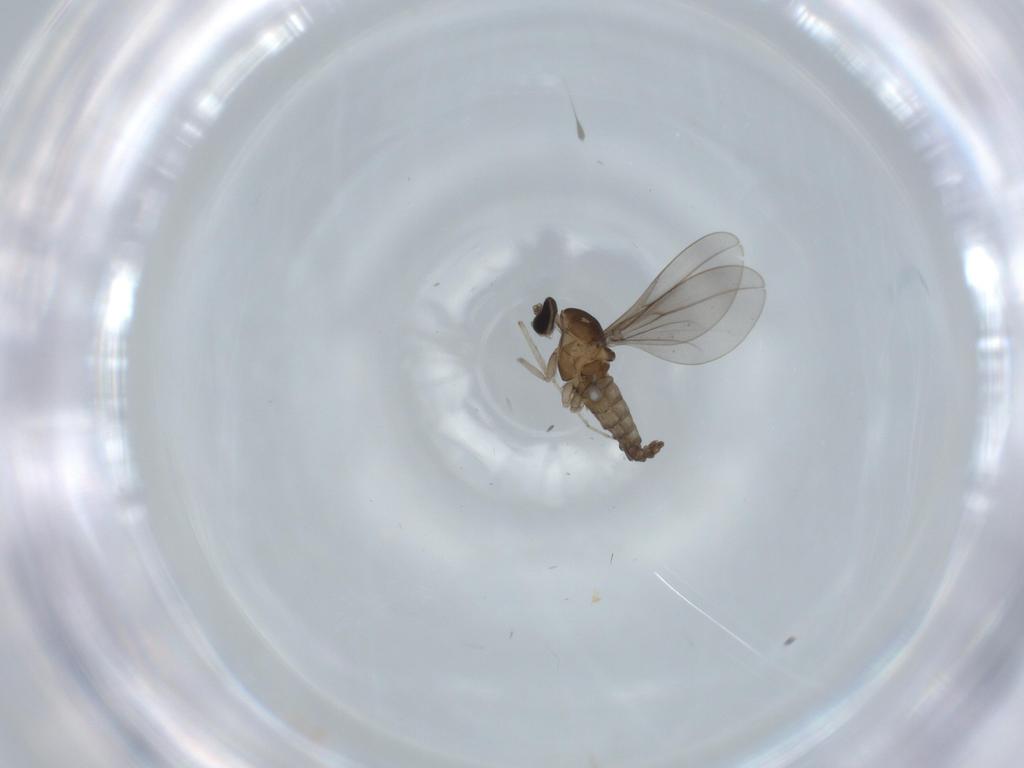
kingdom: Animalia
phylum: Arthropoda
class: Insecta
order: Diptera
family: Cecidomyiidae
